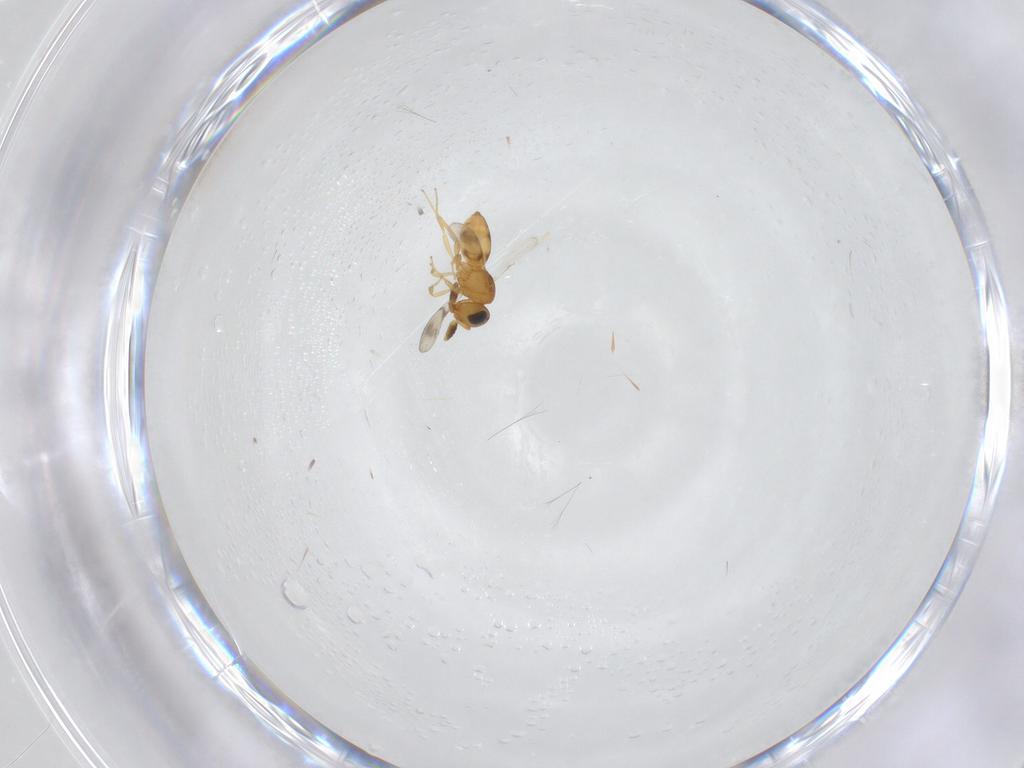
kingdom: Animalia
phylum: Arthropoda
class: Insecta
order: Hymenoptera
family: Scelionidae
